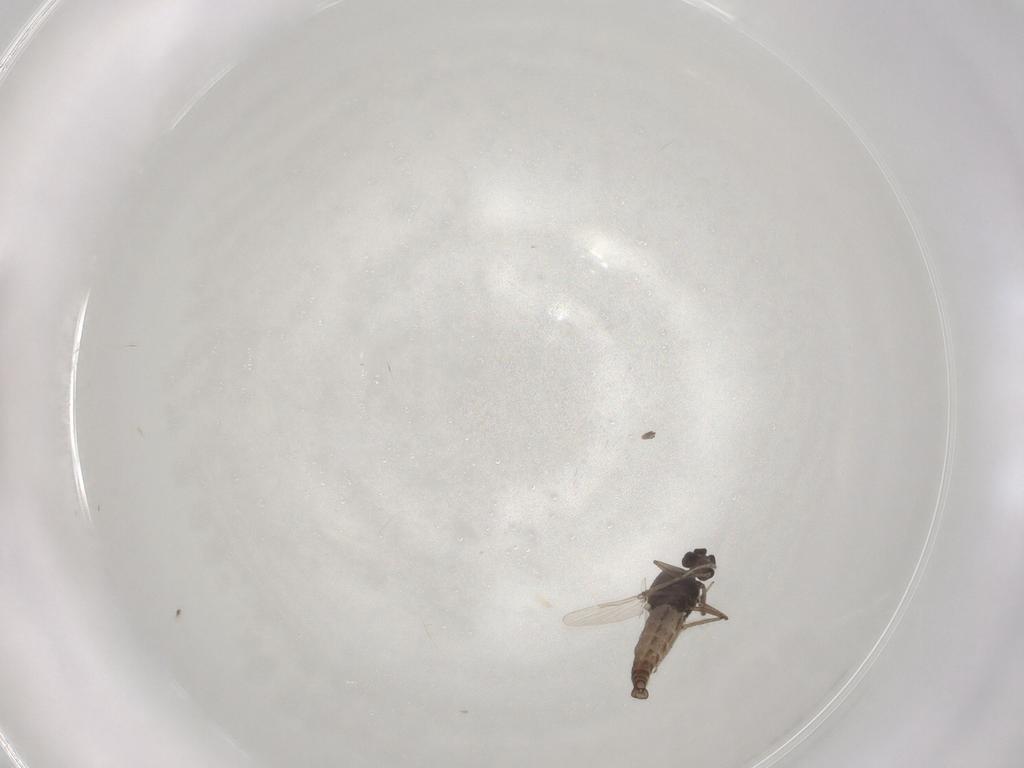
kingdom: Animalia
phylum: Arthropoda
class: Insecta
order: Diptera
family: Ceratopogonidae
